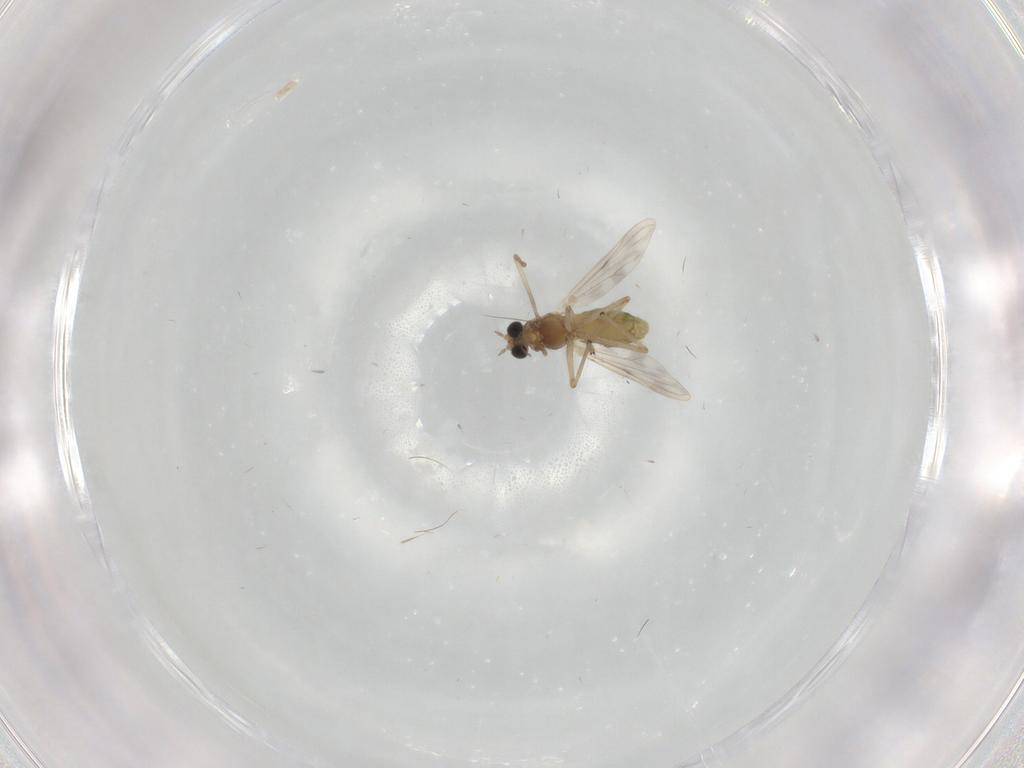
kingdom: Animalia
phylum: Arthropoda
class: Insecta
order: Diptera
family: Chironomidae
